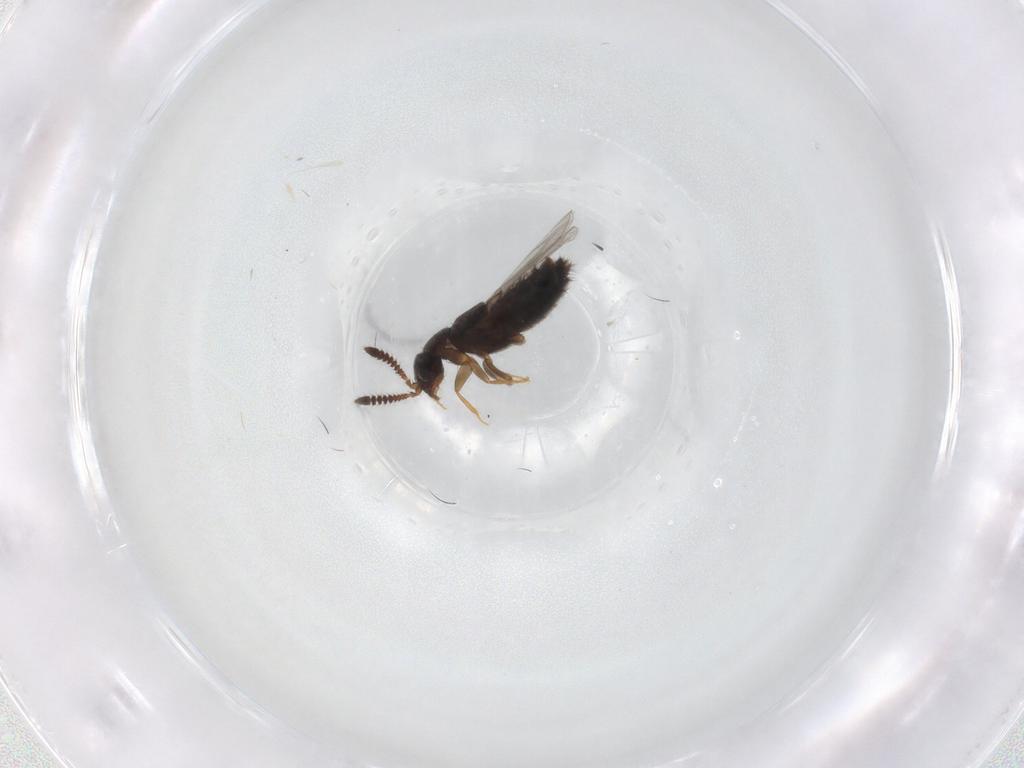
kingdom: Animalia
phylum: Arthropoda
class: Insecta
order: Coleoptera
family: Staphylinidae
